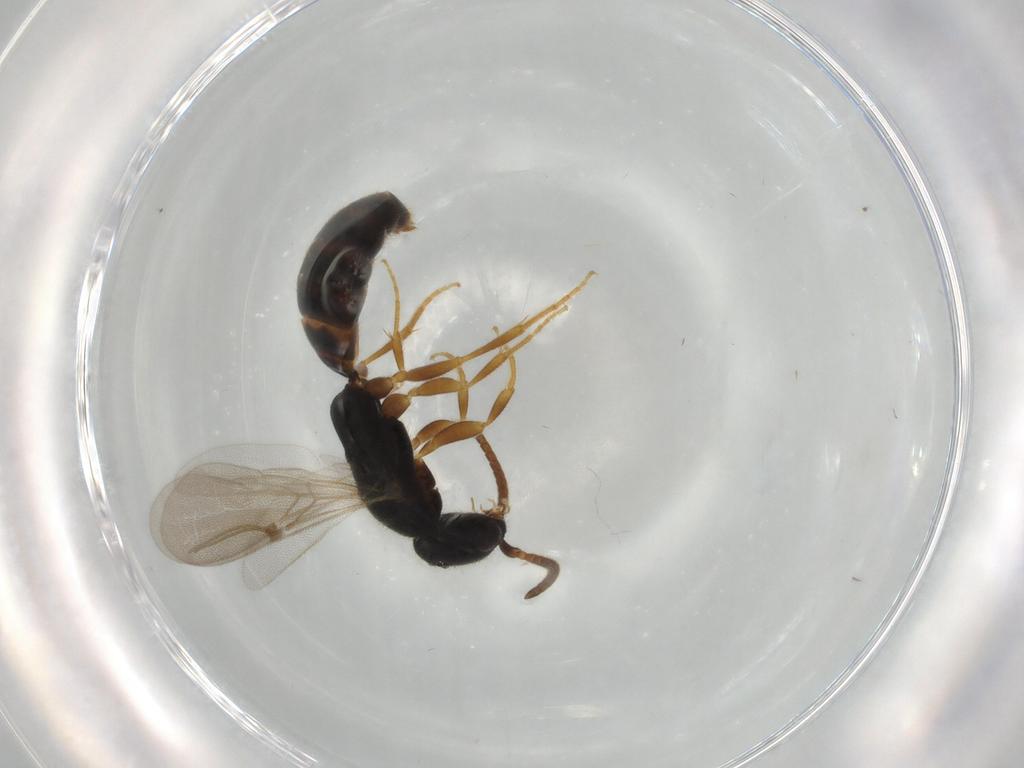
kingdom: Animalia
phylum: Arthropoda
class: Insecta
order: Hymenoptera
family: Bethylidae
